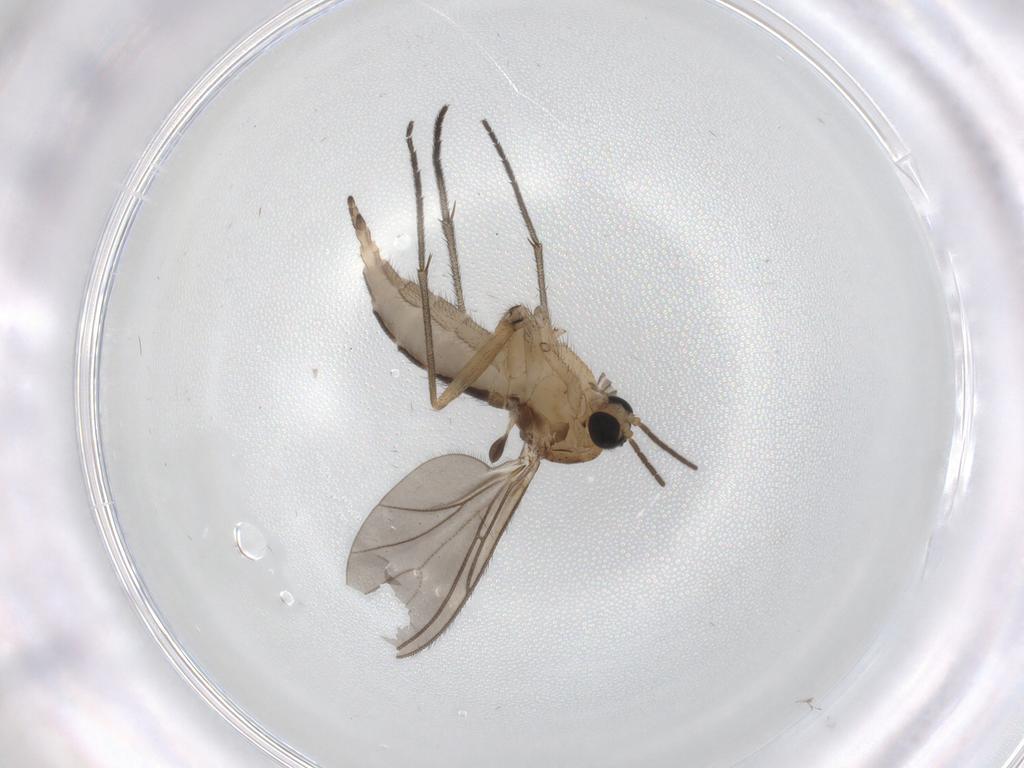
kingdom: Animalia
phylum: Arthropoda
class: Insecta
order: Diptera
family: Sciaridae
